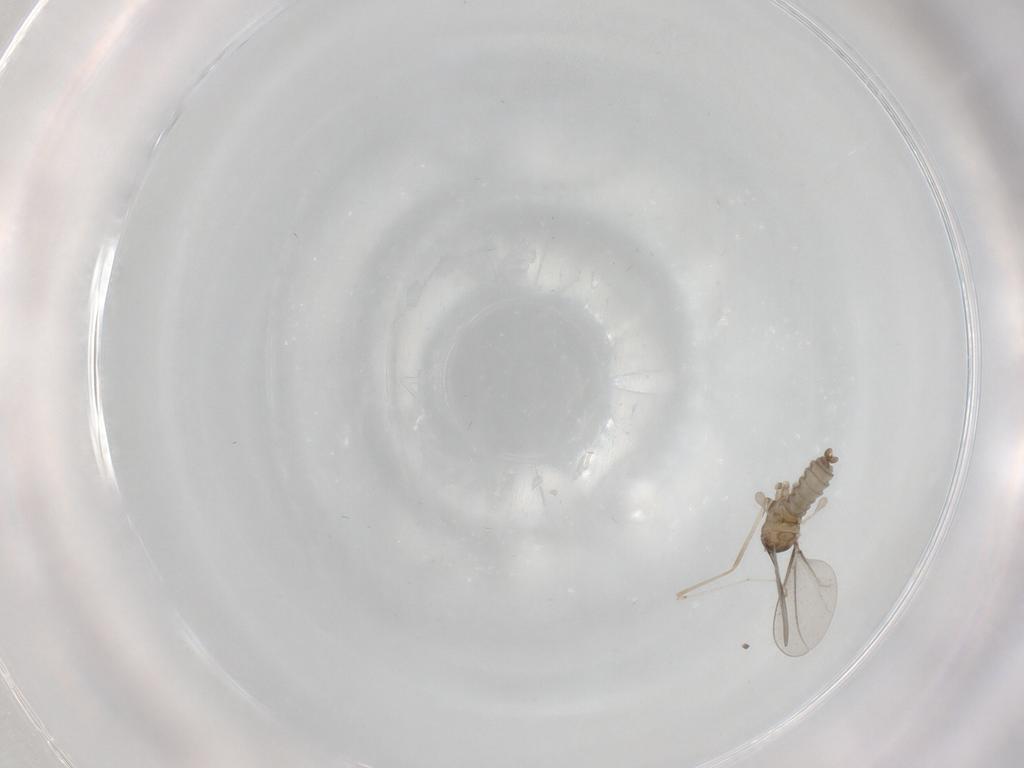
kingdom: Animalia
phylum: Arthropoda
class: Insecta
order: Diptera
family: Cecidomyiidae
